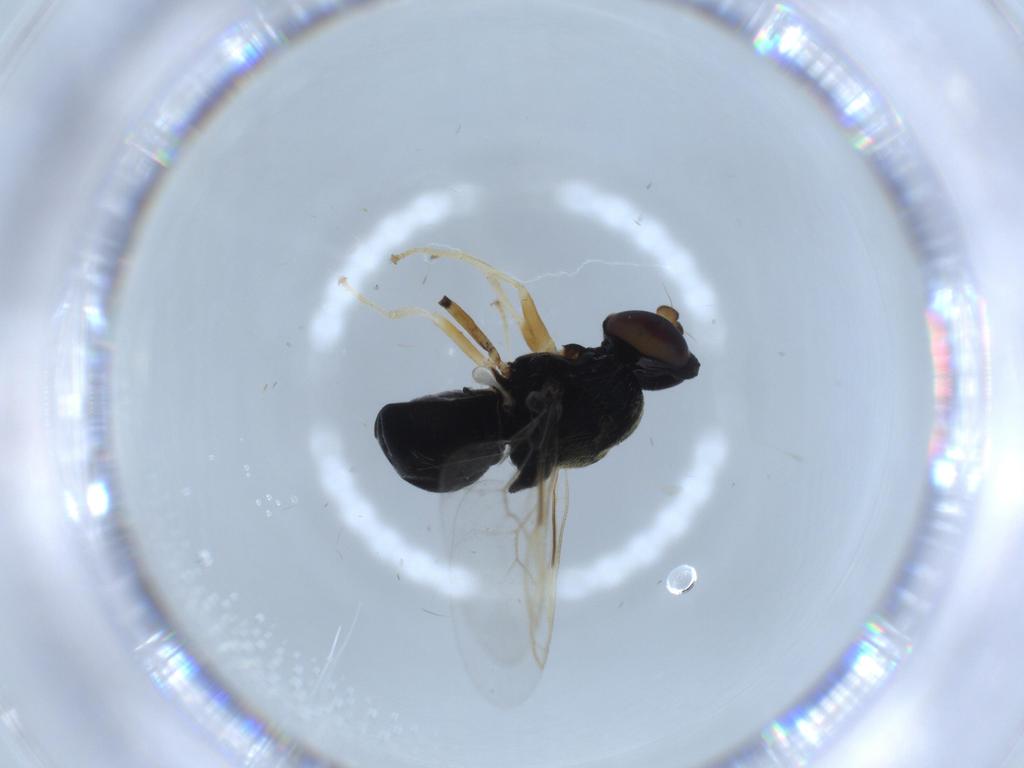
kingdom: Animalia
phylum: Arthropoda
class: Insecta
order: Diptera
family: Stratiomyidae
